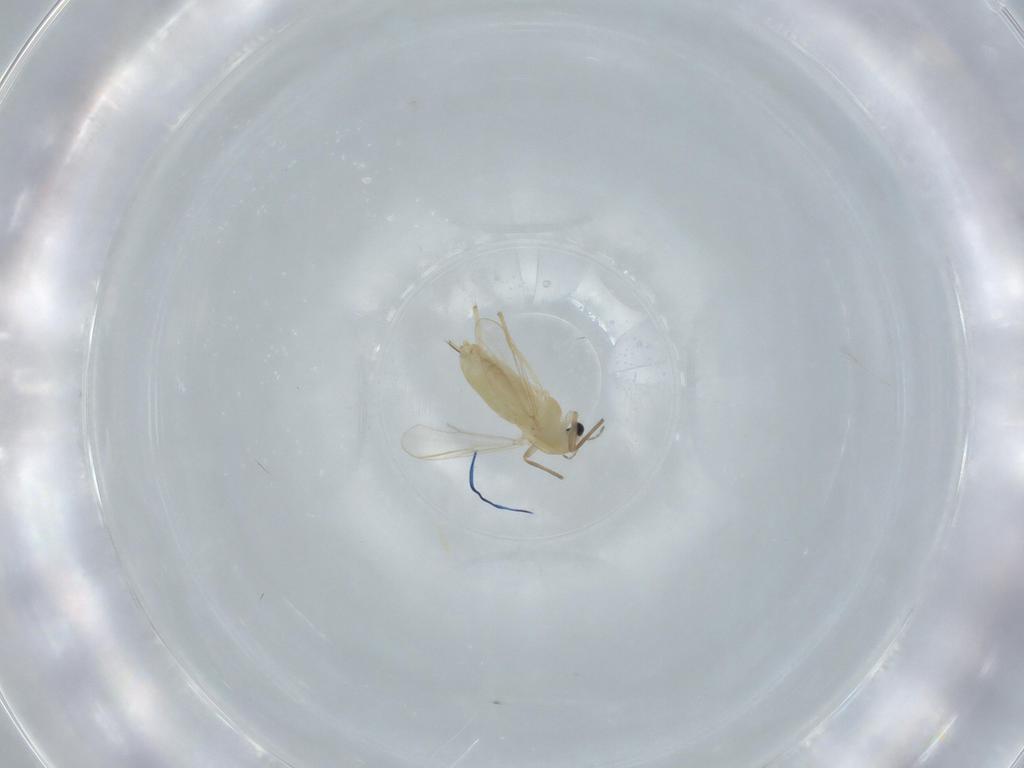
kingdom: Animalia
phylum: Arthropoda
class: Insecta
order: Diptera
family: Chironomidae
